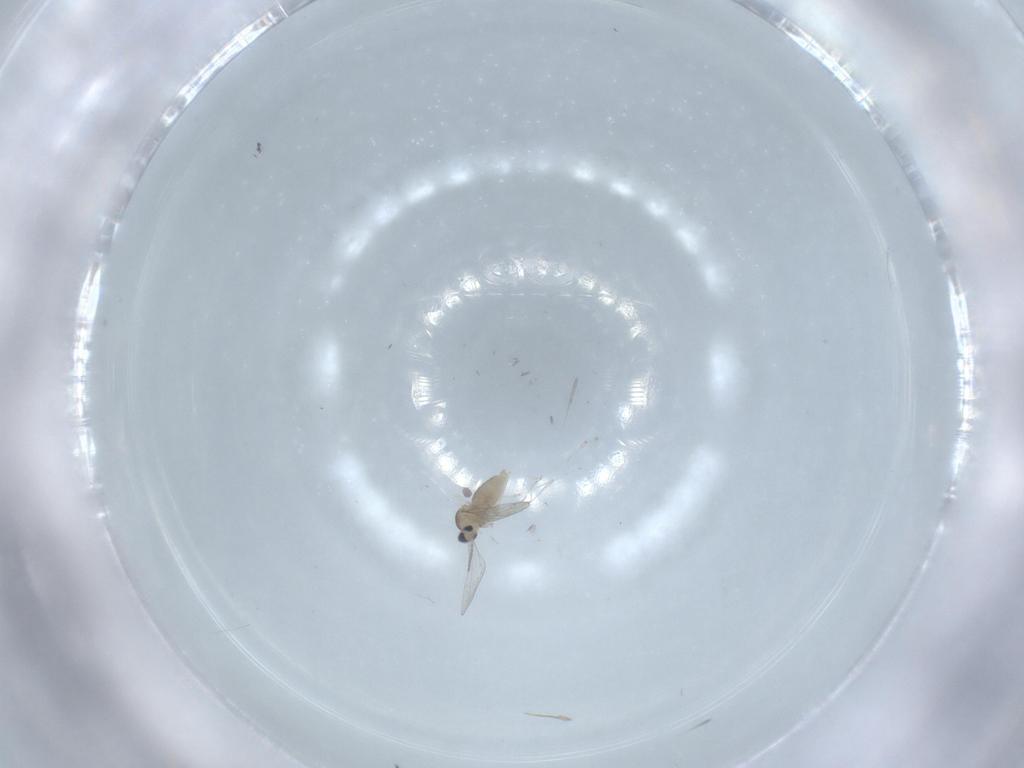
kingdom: Animalia
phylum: Arthropoda
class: Insecta
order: Diptera
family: Cecidomyiidae
